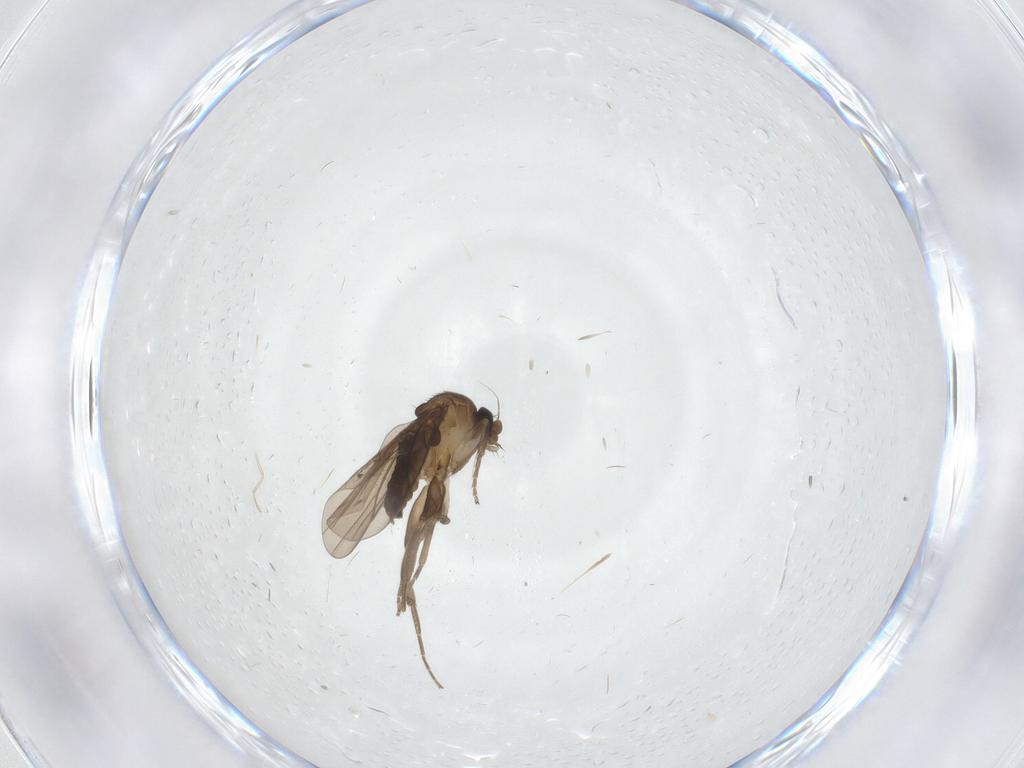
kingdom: Animalia
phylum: Arthropoda
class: Insecta
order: Diptera
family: Cecidomyiidae
